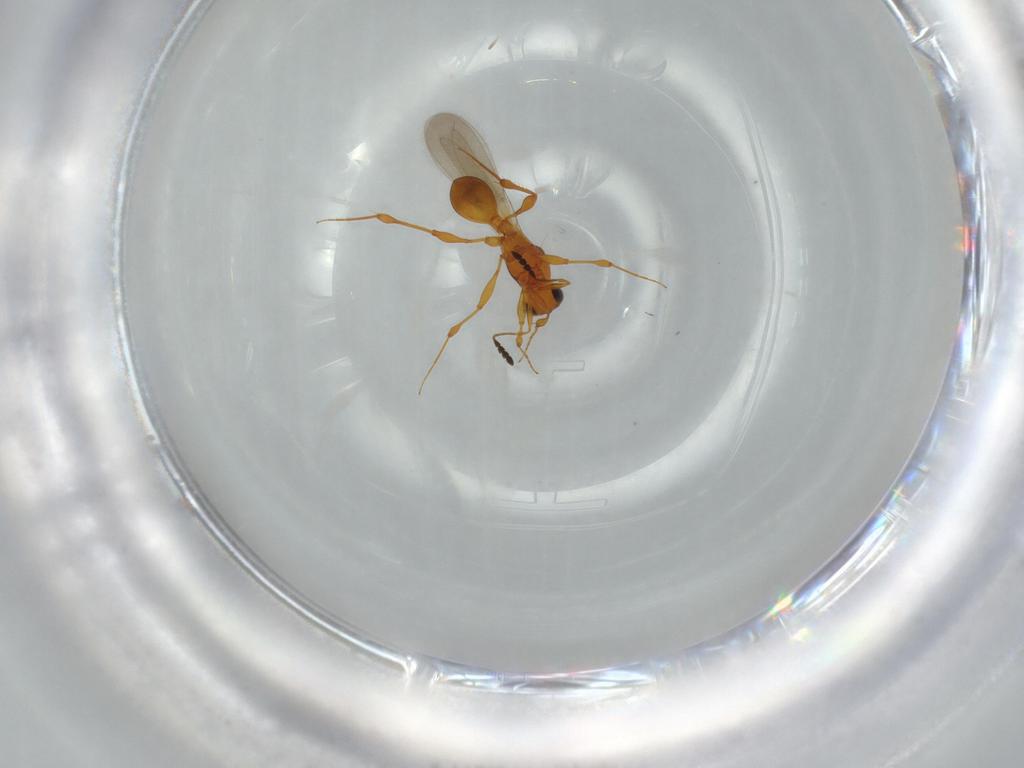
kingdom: Animalia
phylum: Arthropoda
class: Insecta
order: Hymenoptera
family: Platygastridae
